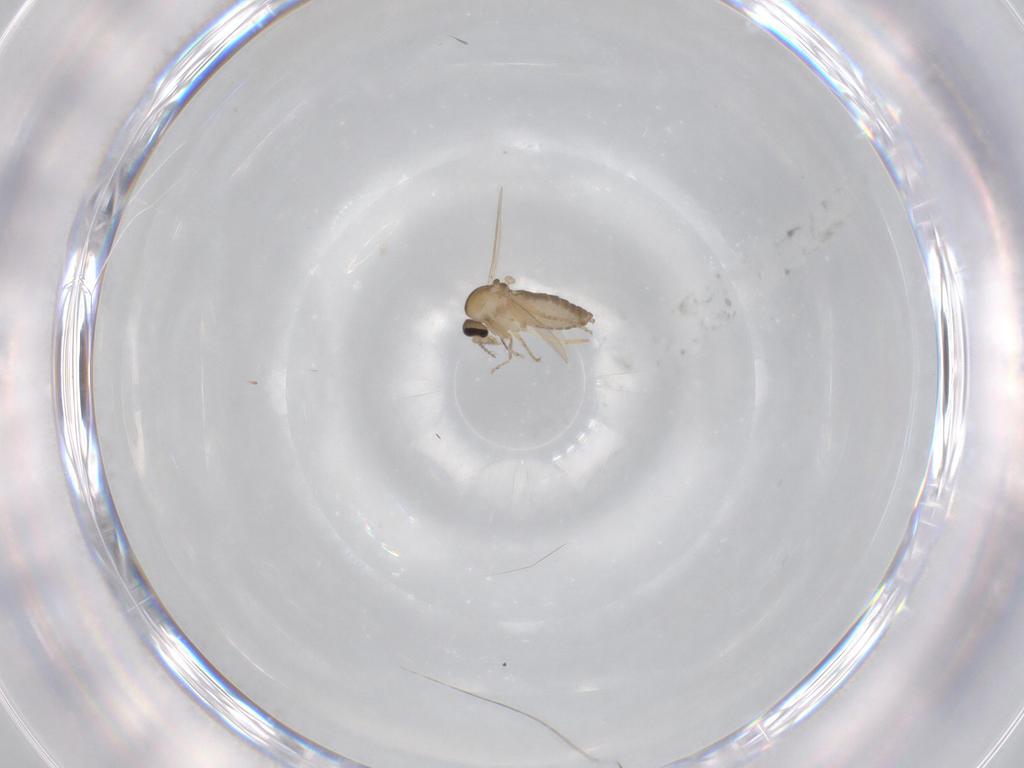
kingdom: Animalia
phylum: Arthropoda
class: Insecta
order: Diptera
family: Ceratopogonidae
